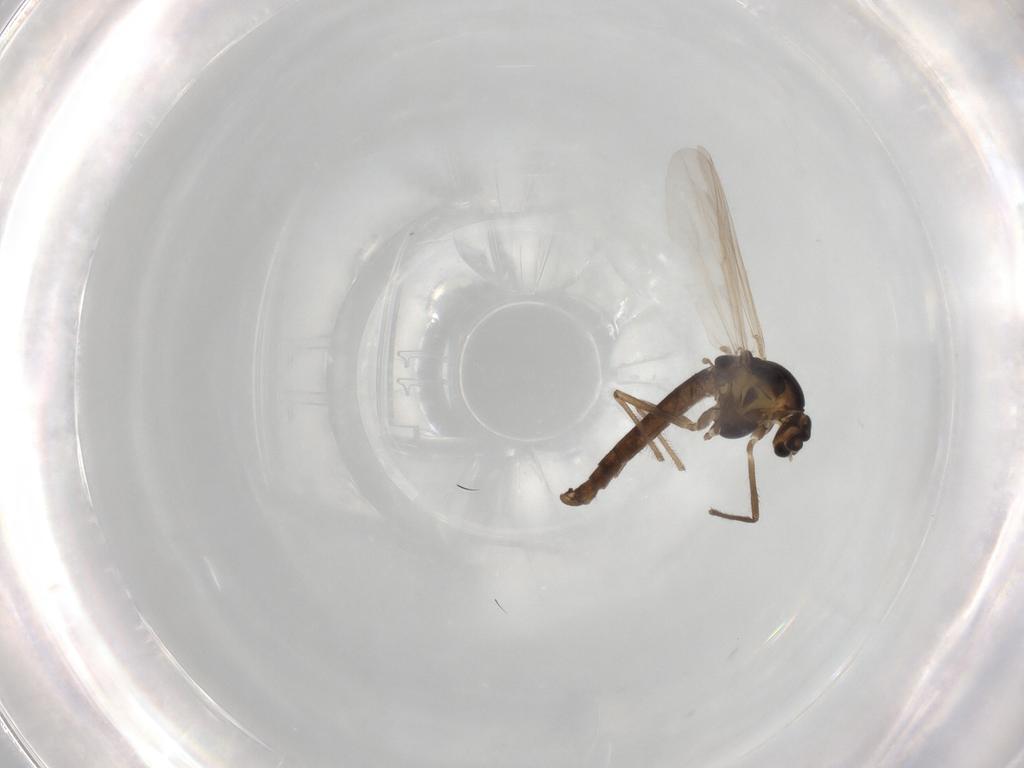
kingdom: Animalia
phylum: Arthropoda
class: Insecta
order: Diptera
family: Chironomidae
